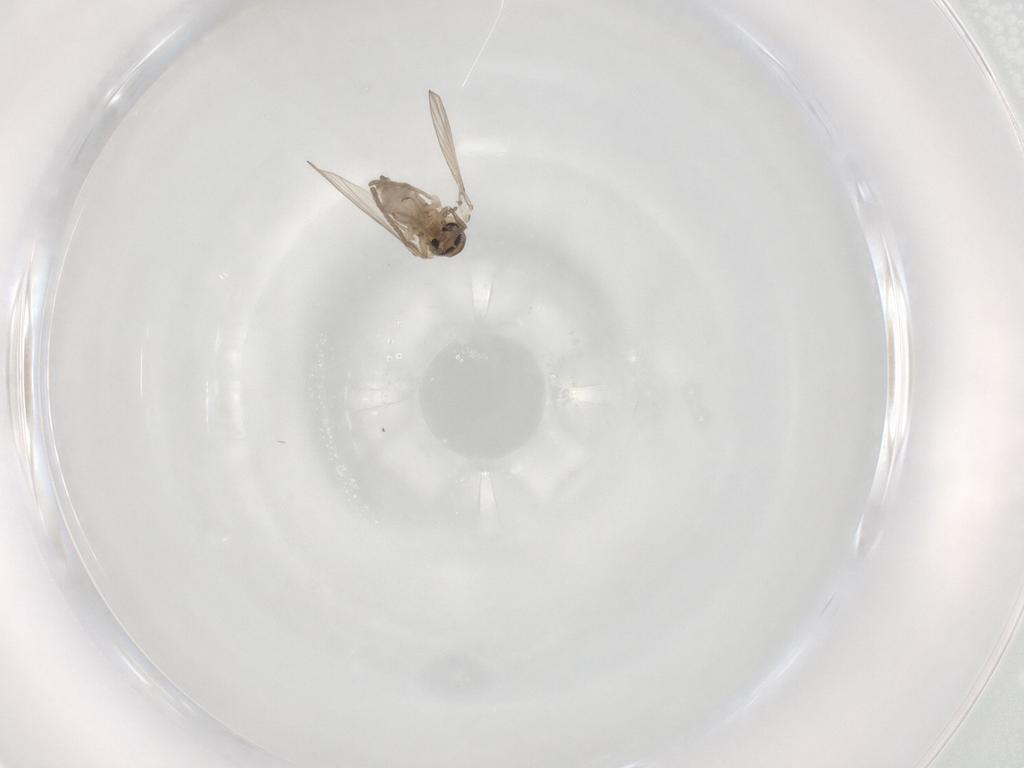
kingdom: Animalia
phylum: Arthropoda
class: Insecta
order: Diptera
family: Psychodidae
